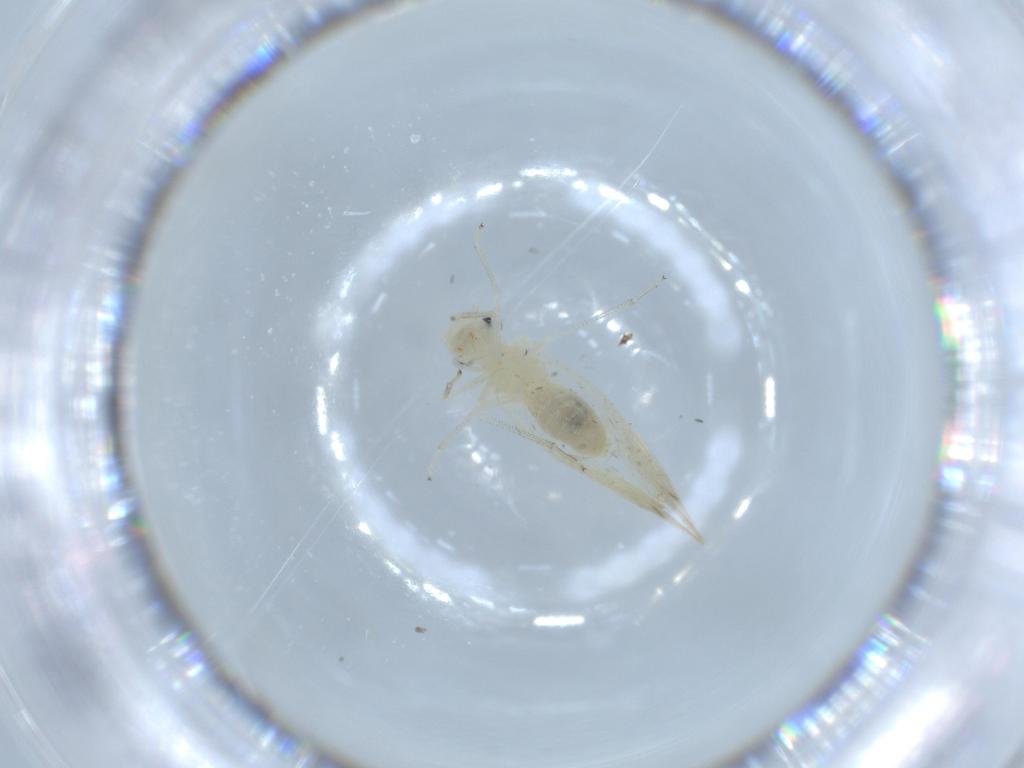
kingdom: Animalia
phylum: Arthropoda
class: Insecta
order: Psocodea
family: Caeciliusidae
